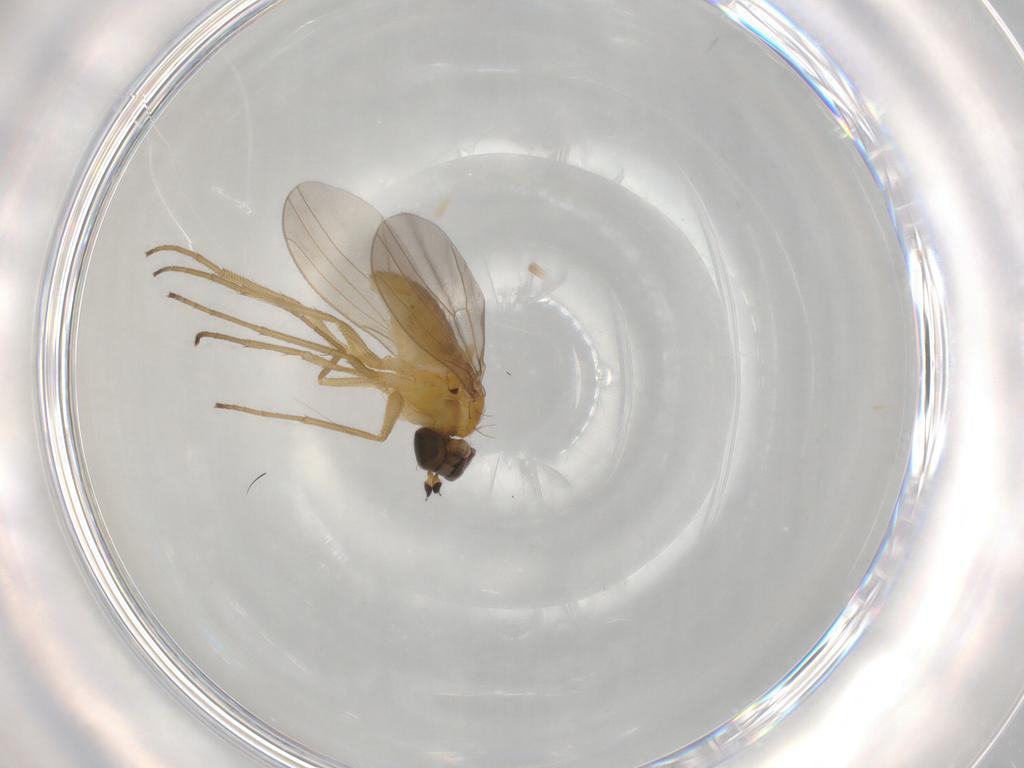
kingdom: Animalia
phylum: Arthropoda
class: Insecta
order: Diptera
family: Dolichopodidae
